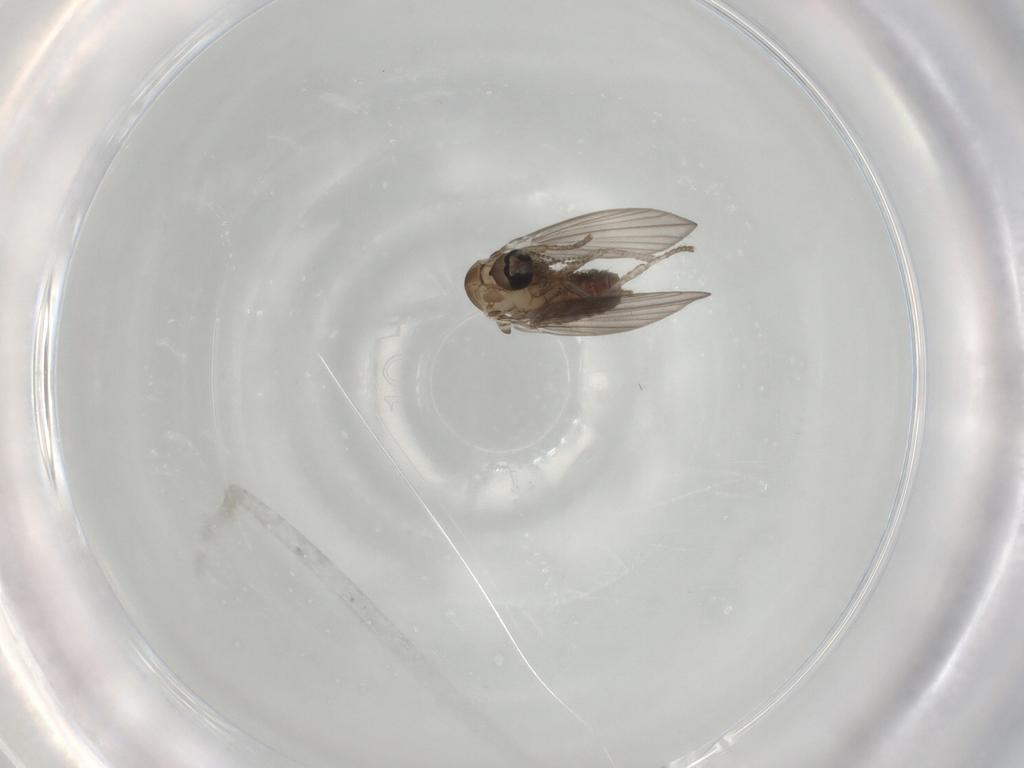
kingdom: Animalia
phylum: Arthropoda
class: Insecta
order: Diptera
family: Psychodidae
